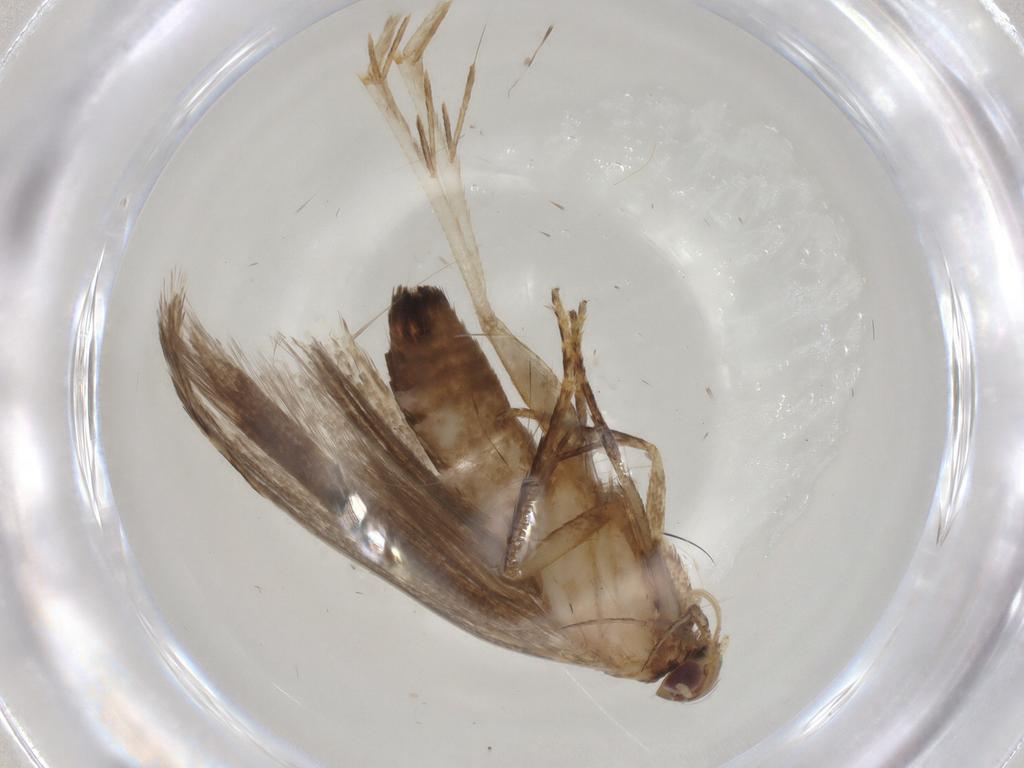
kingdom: Animalia
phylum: Arthropoda
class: Insecta
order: Lepidoptera
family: Gelechiidae
